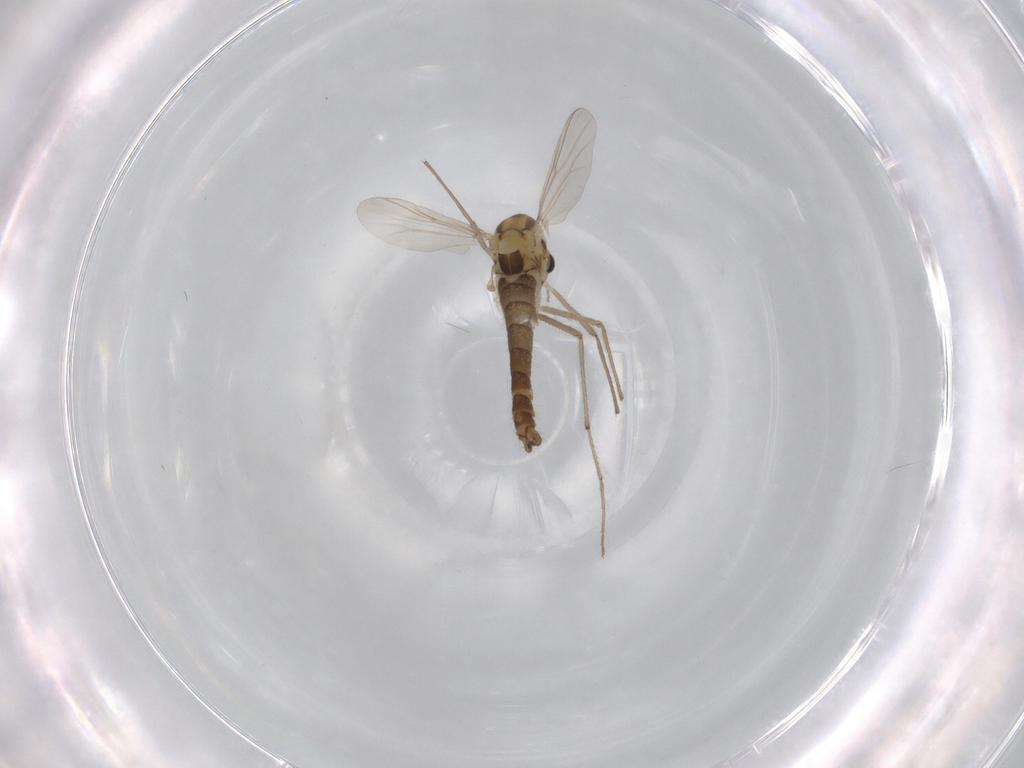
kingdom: Animalia
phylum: Arthropoda
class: Insecta
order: Diptera
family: Chironomidae
